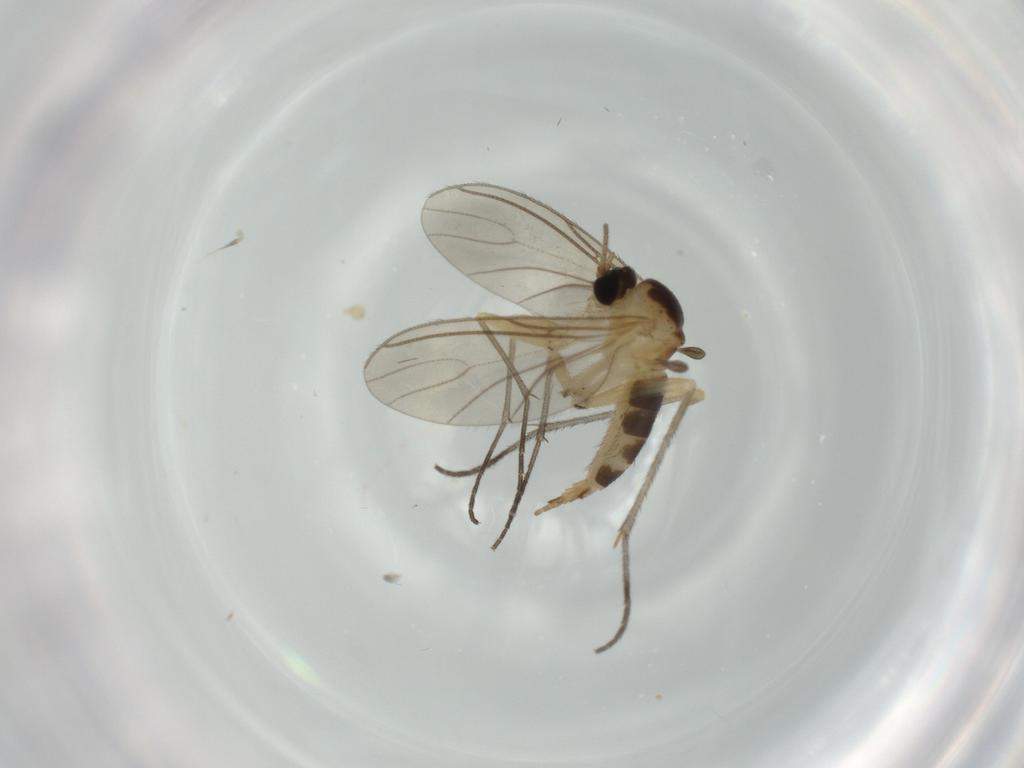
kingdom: Animalia
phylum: Arthropoda
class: Insecta
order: Diptera
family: Sciaridae
